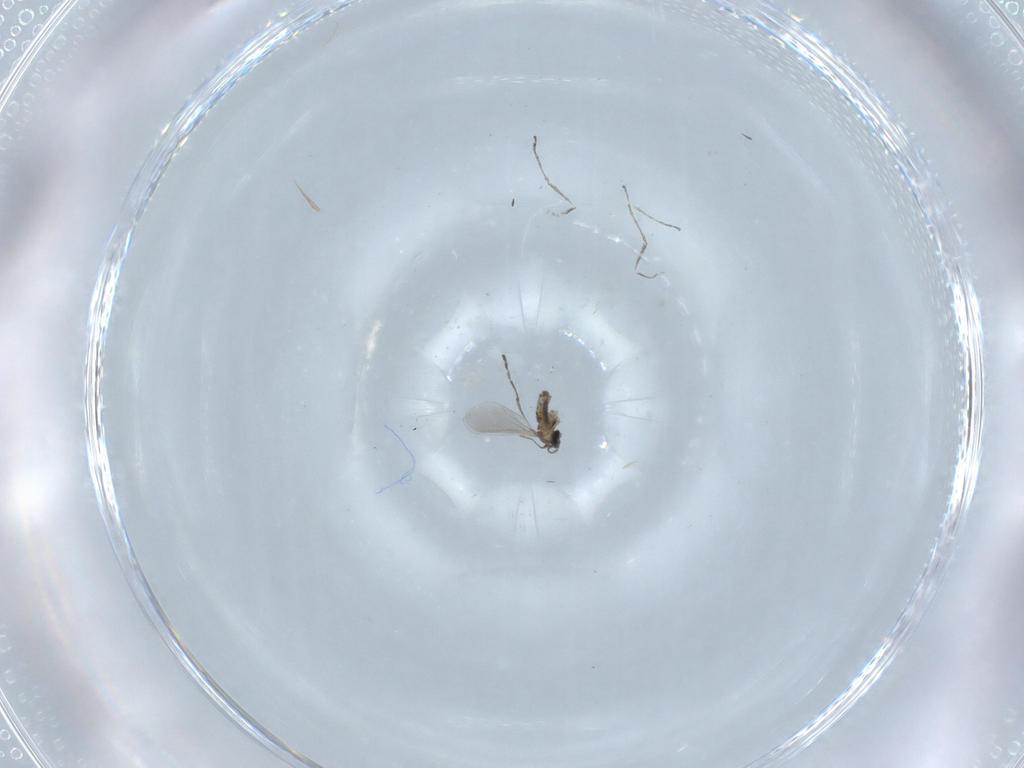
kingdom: Animalia
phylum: Arthropoda
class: Insecta
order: Diptera
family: Cecidomyiidae
